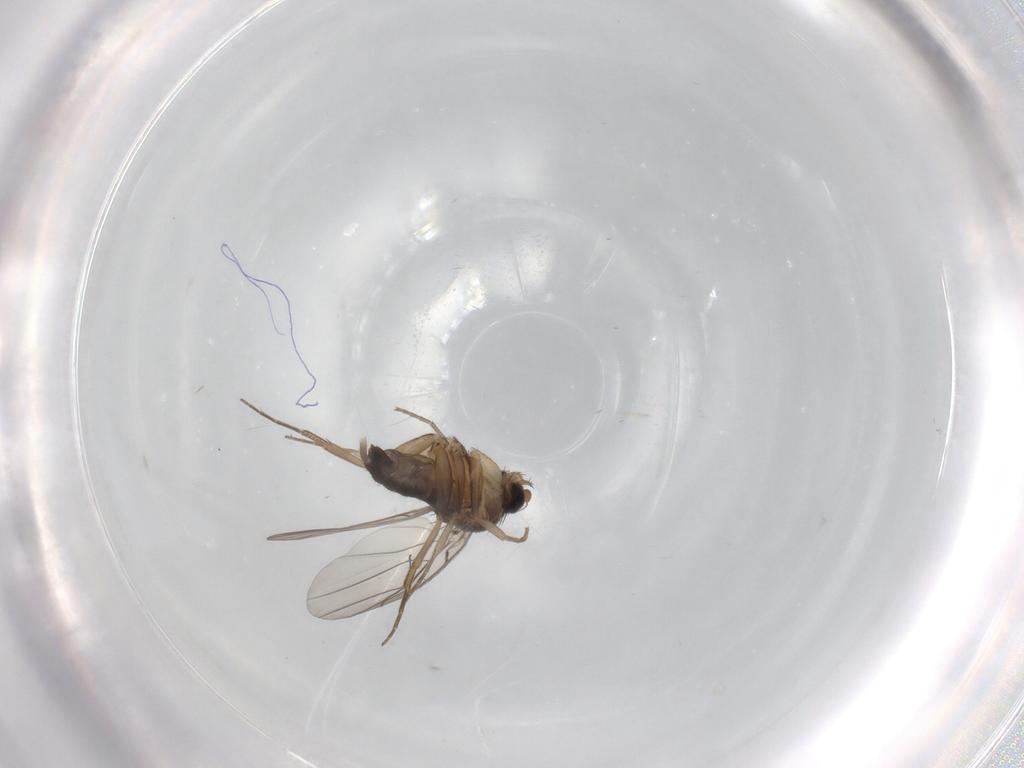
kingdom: Animalia
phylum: Arthropoda
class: Insecta
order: Diptera
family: Phoridae
